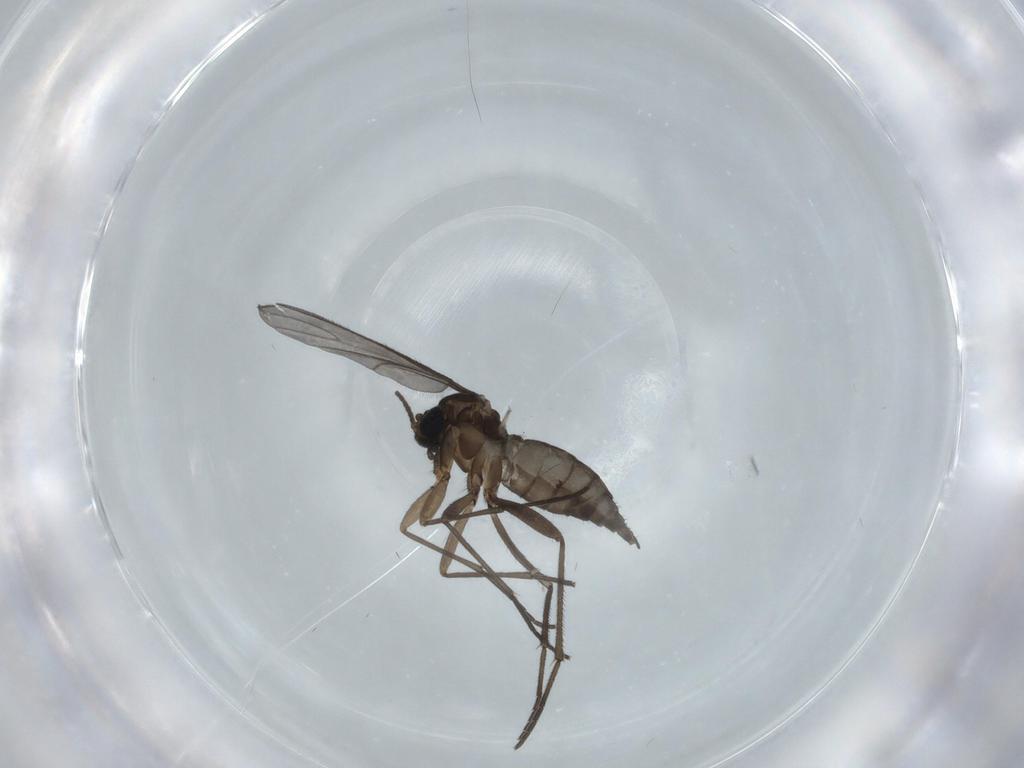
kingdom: Animalia
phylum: Arthropoda
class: Insecta
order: Diptera
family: Sciaridae
